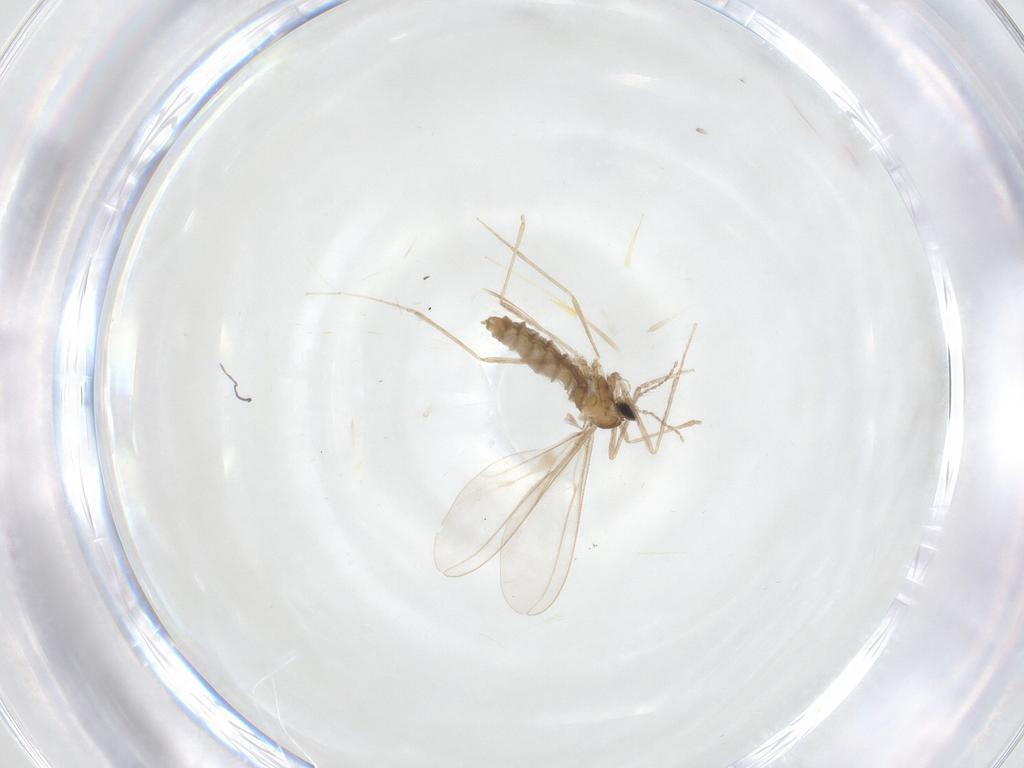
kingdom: Animalia
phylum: Arthropoda
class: Insecta
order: Diptera
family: Cecidomyiidae
